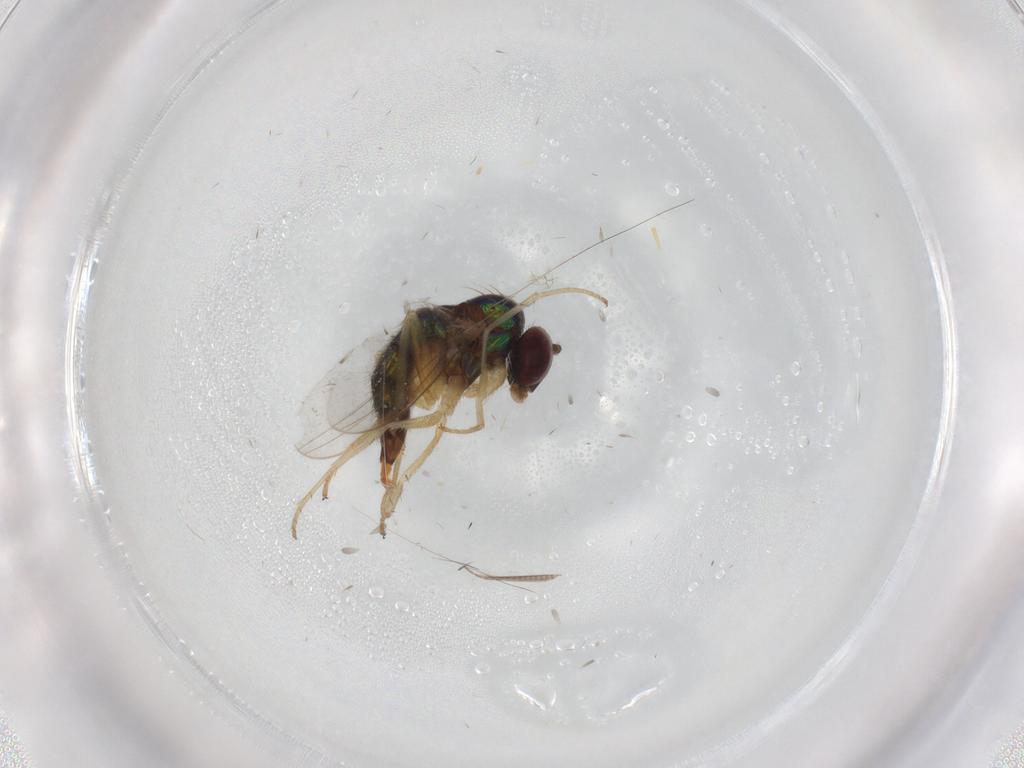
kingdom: Animalia
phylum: Arthropoda
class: Insecta
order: Diptera
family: Dolichopodidae
